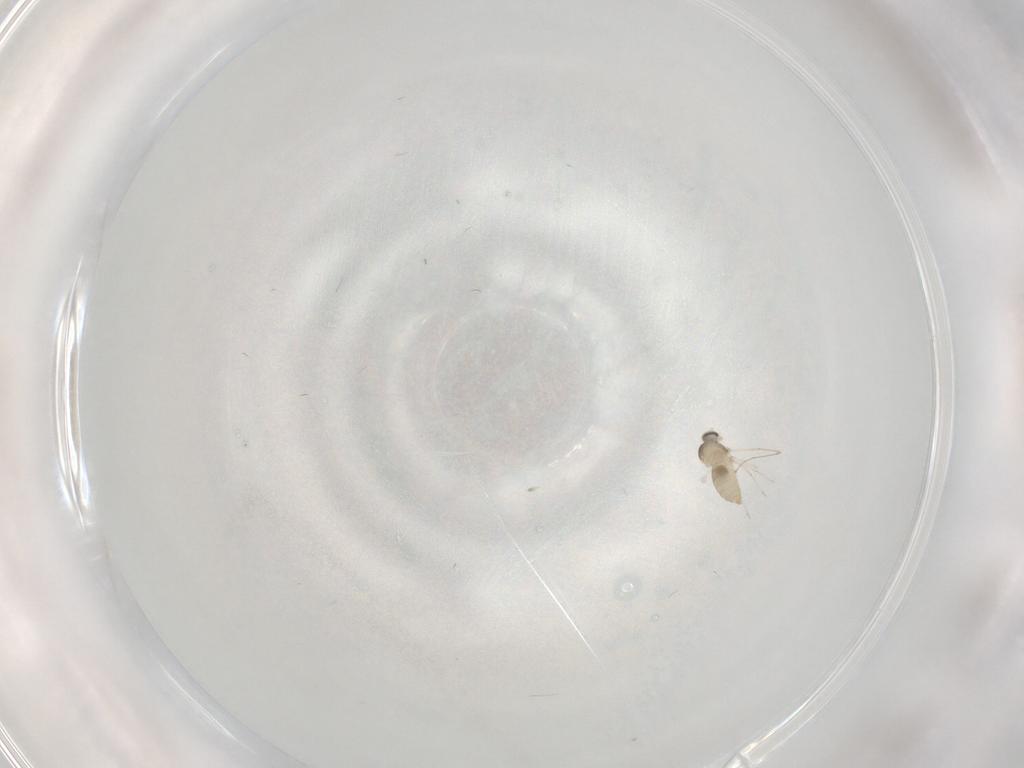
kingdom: Animalia
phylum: Arthropoda
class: Insecta
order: Diptera
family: Cecidomyiidae
